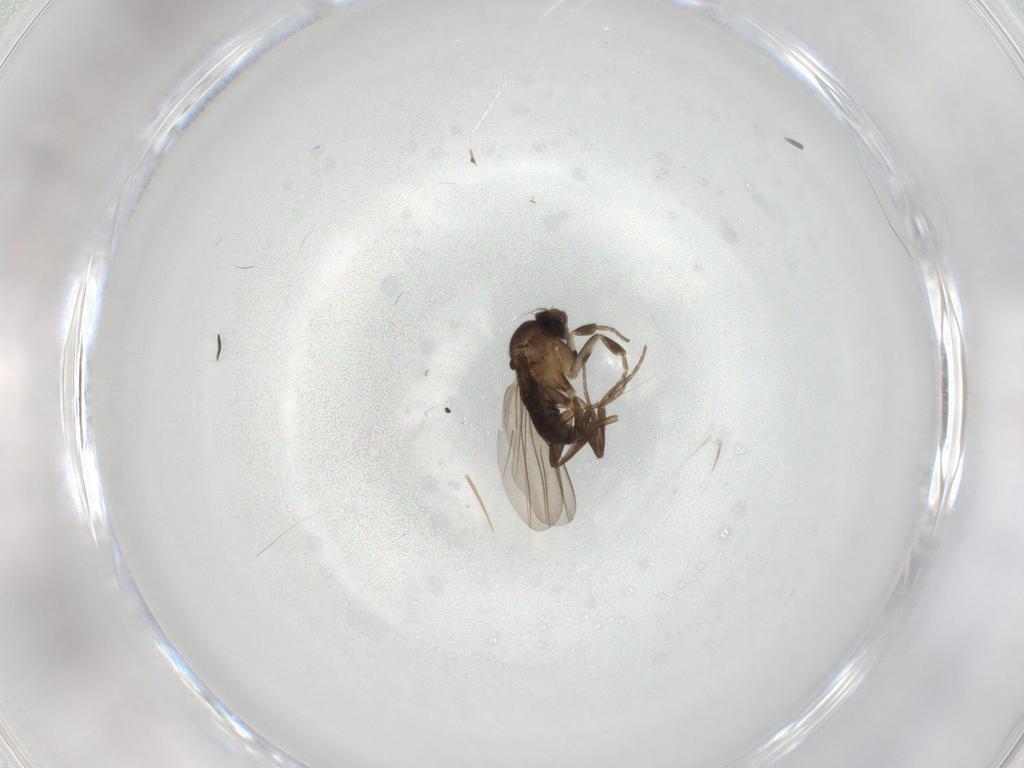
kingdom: Animalia
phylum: Arthropoda
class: Insecta
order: Diptera
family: Phoridae
